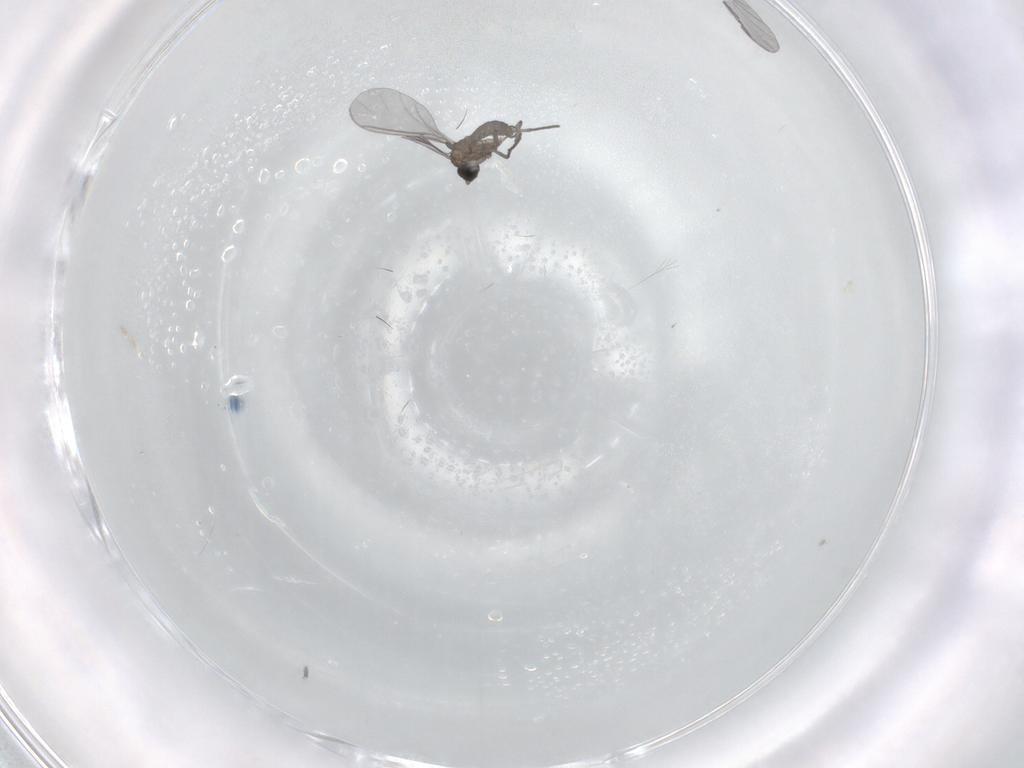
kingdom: Animalia
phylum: Arthropoda
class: Insecta
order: Diptera
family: Sciaridae
